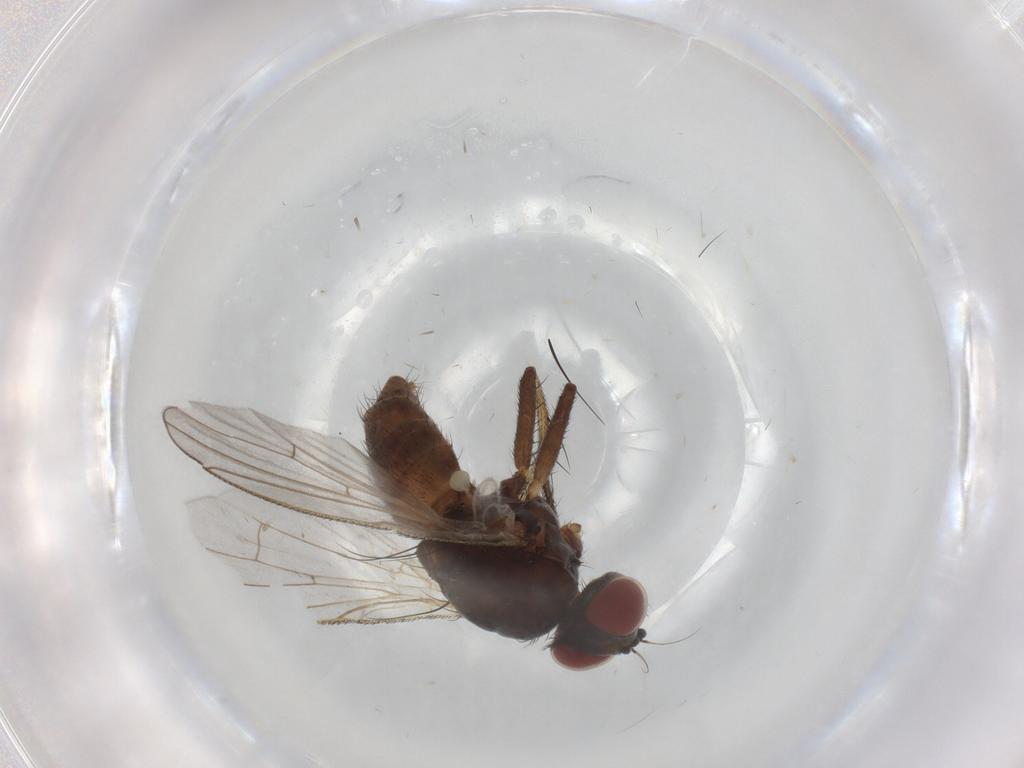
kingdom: Animalia
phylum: Arthropoda
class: Insecta
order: Diptera
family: Chironomidae
